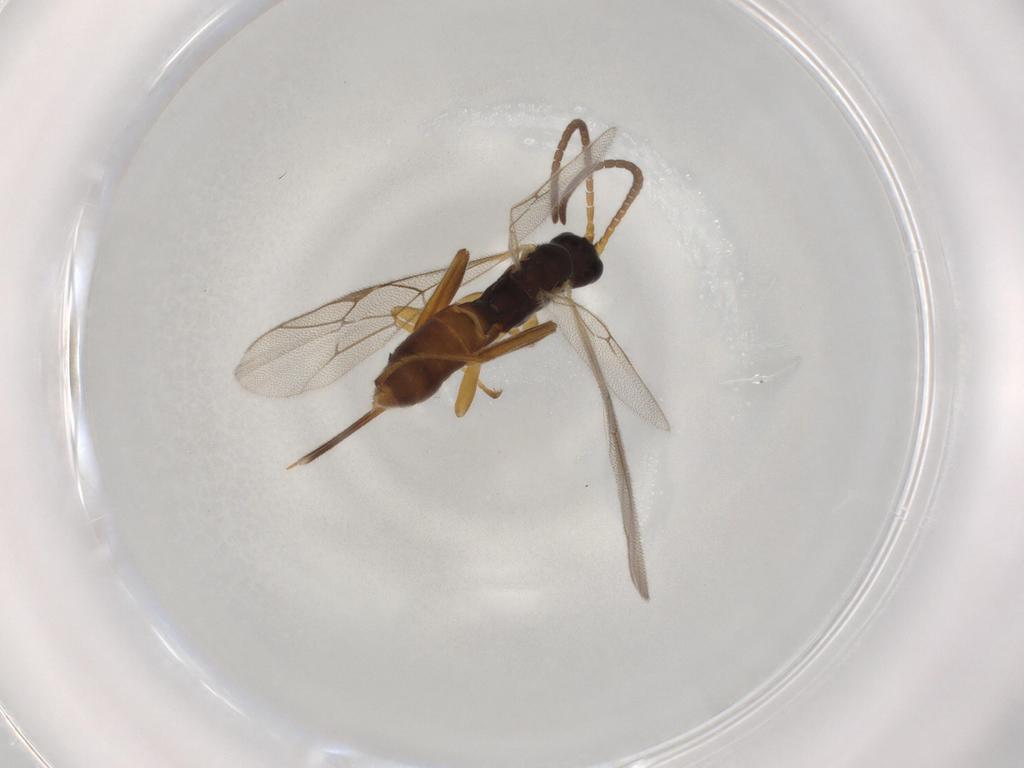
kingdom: Animalia
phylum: Arthropoda
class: Insecta
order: Hymenoptera
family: Ichneumonidae
